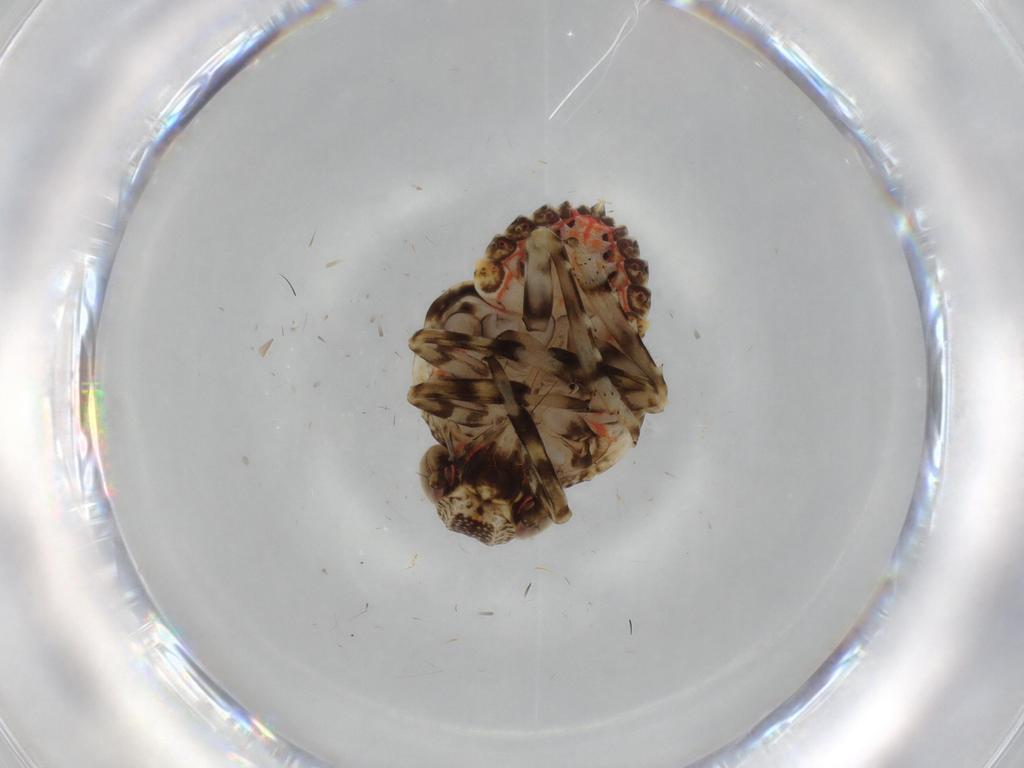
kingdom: Animalia
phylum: Arthropoda
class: Insecta
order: Hemiptera
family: Issidae
